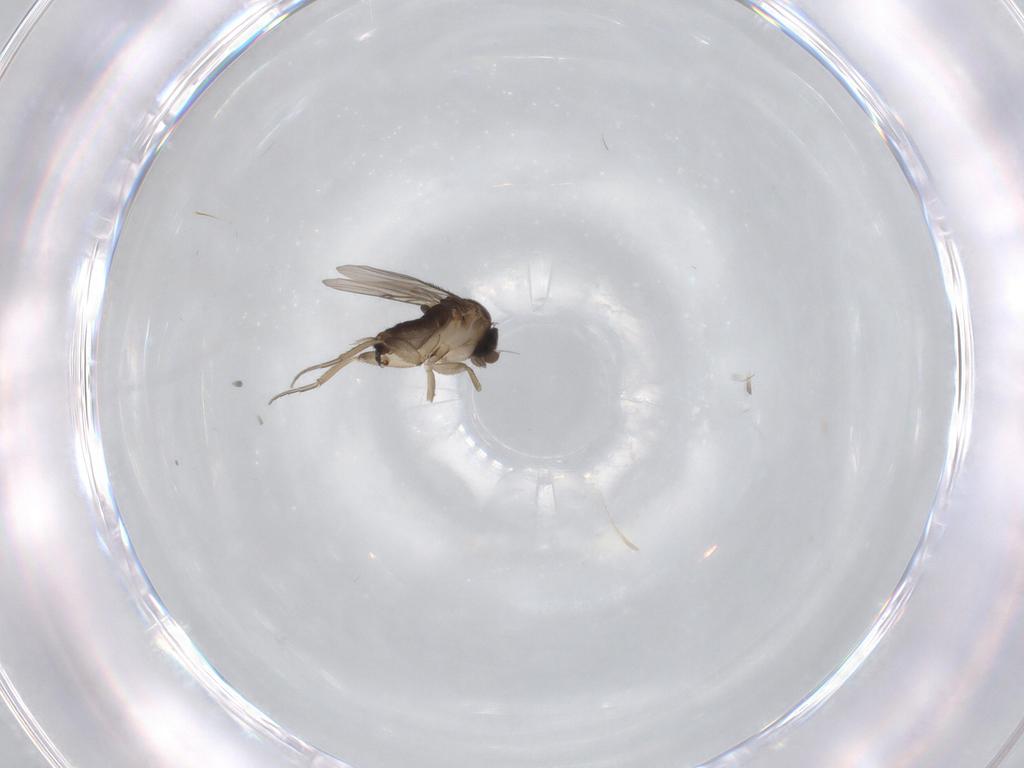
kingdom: Animalia
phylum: Arthropoda
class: Insecta
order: Diptera
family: Phoridae
